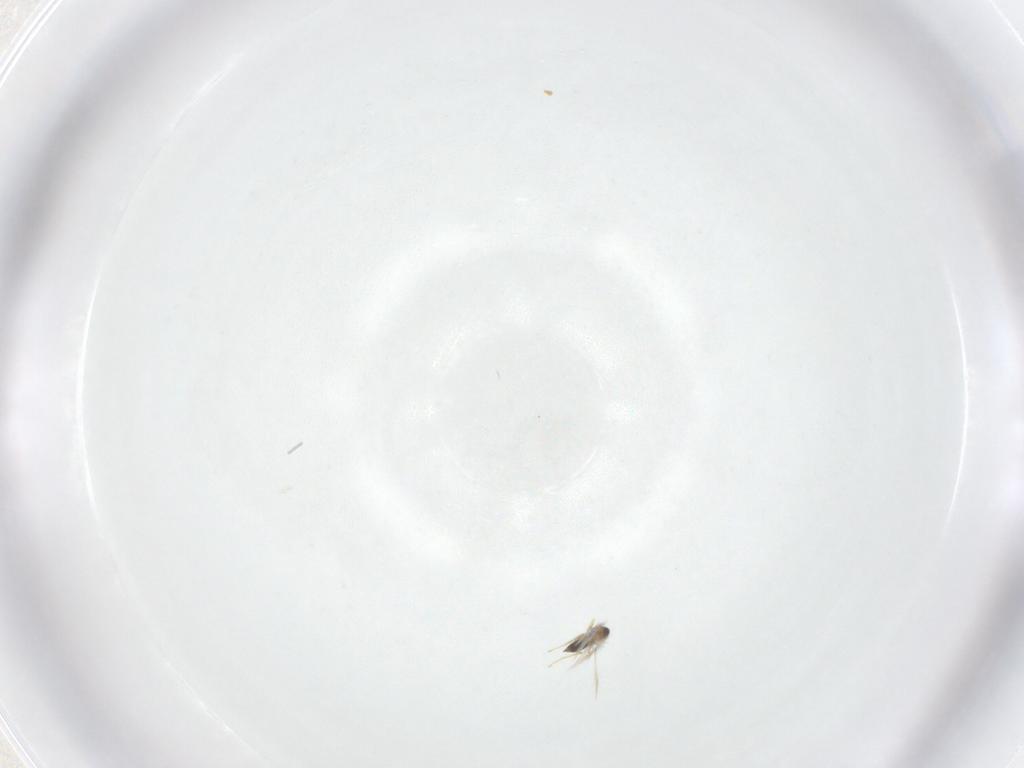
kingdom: Animalia
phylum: Arthropoda
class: Insecta
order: Hymenoptera
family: Mymaridae
